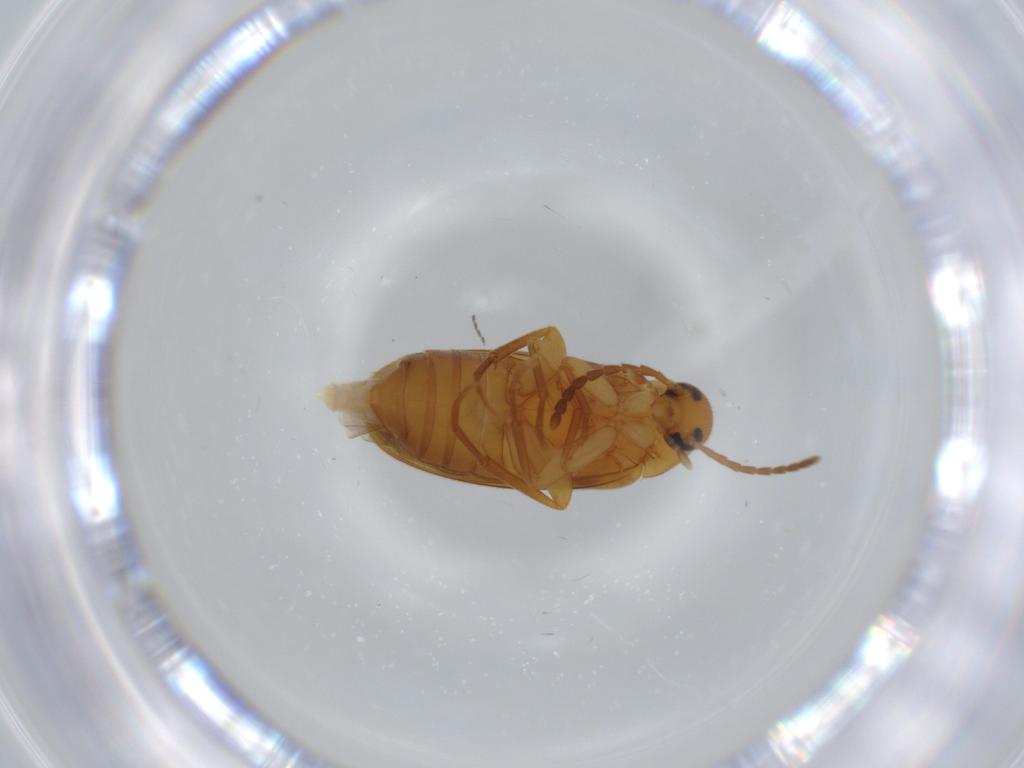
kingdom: Animalia
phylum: Arthropoda
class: Insecta
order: Coleoptera
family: Scraptiidae
